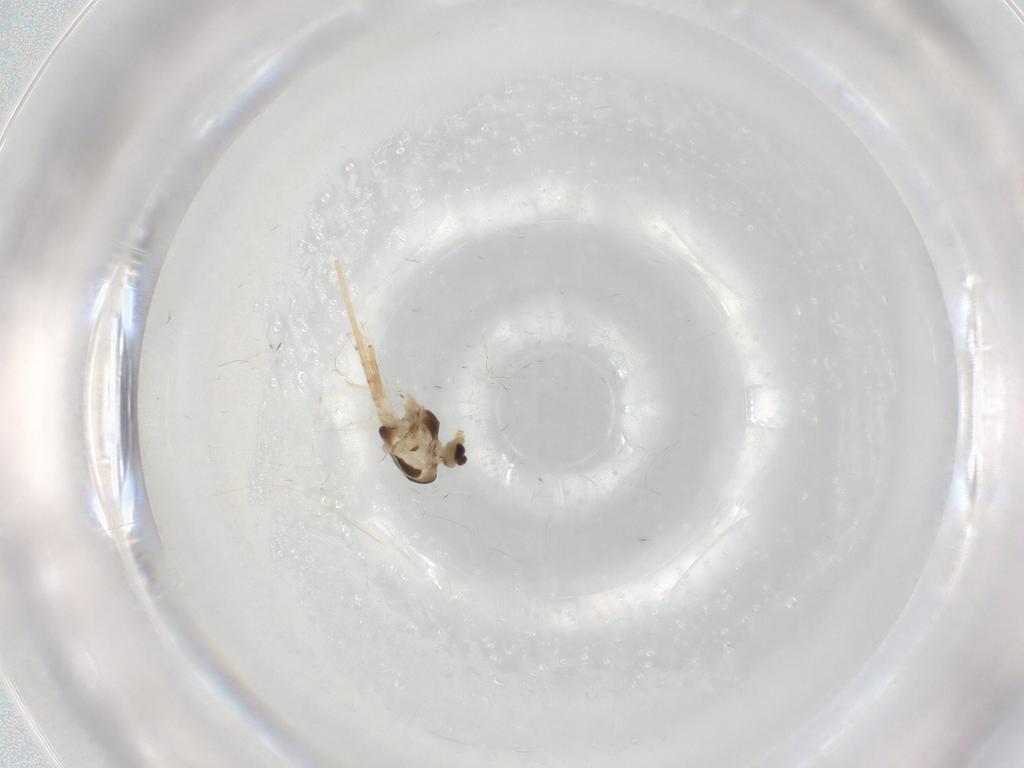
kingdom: Animalia
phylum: Arthropoda
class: Insecta
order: Diptera
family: Chironomidae
